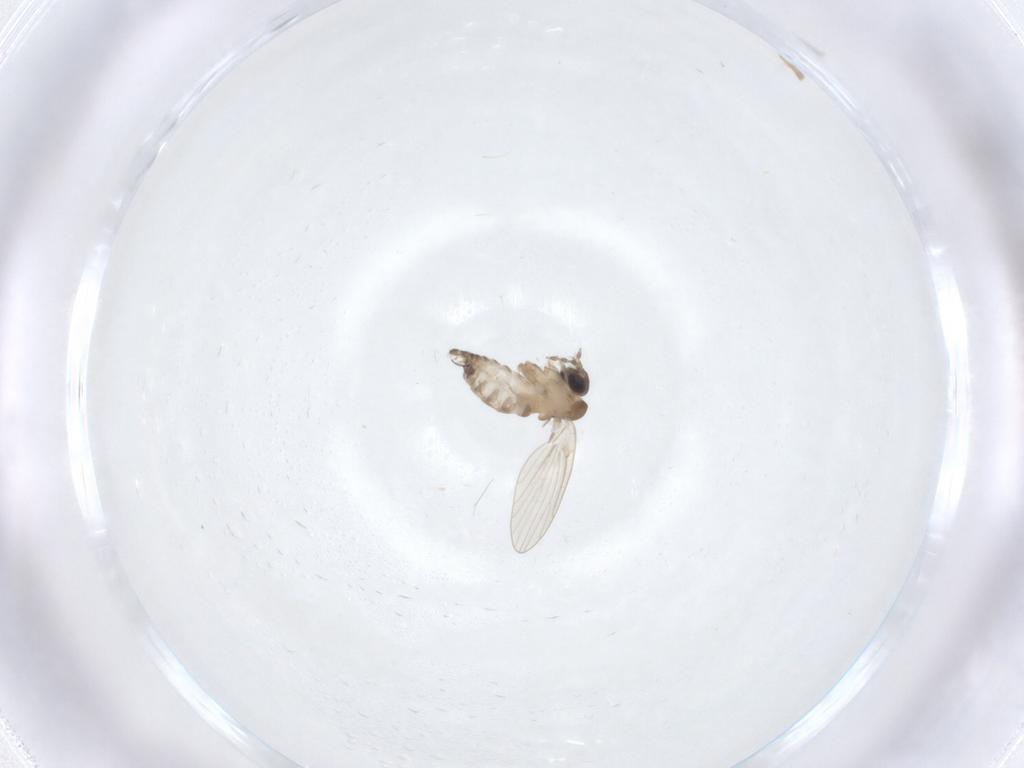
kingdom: Animalia
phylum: Arthropoda
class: Insecta
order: Diptera
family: Cecidomyiidae
